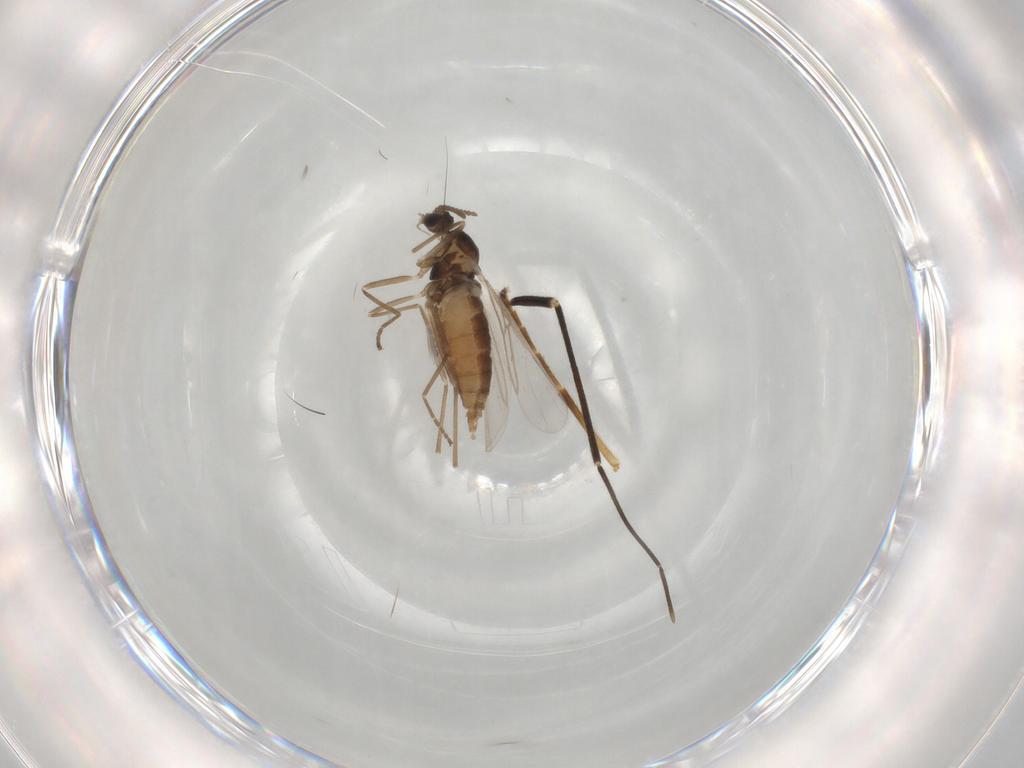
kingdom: Animalia
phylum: Arthropoda
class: Insecta
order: Diptera
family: Cecidomyiidae
